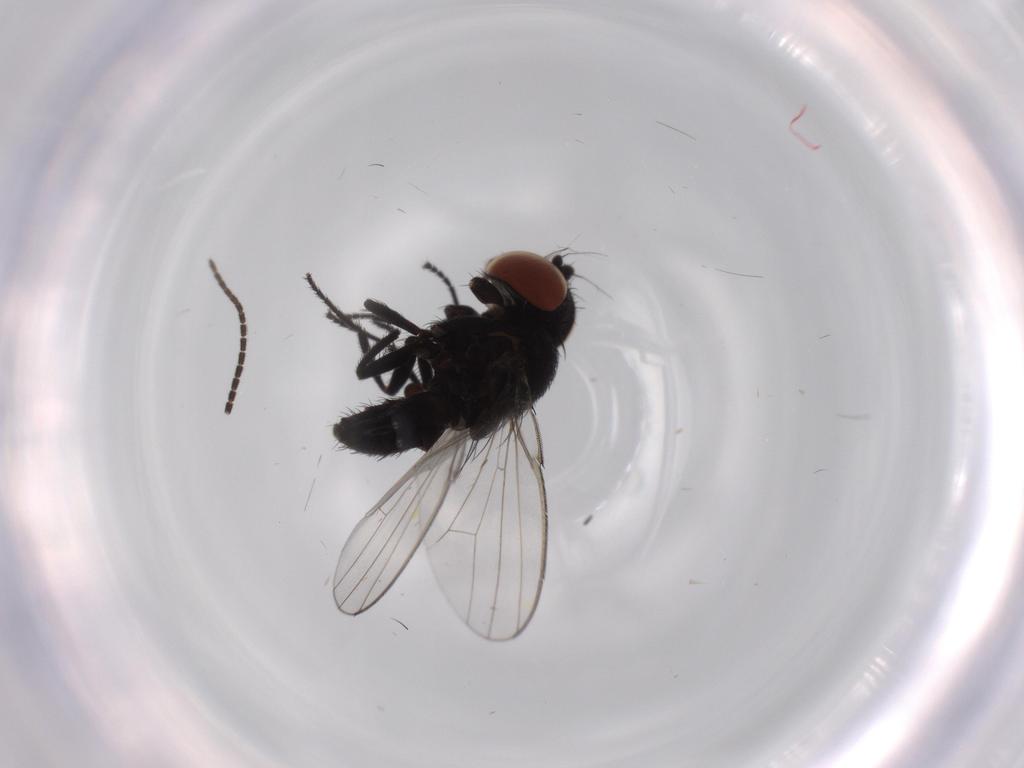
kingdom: Animalia
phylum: Arthropoda
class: Insecta
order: Diptera
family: Milichiidae
